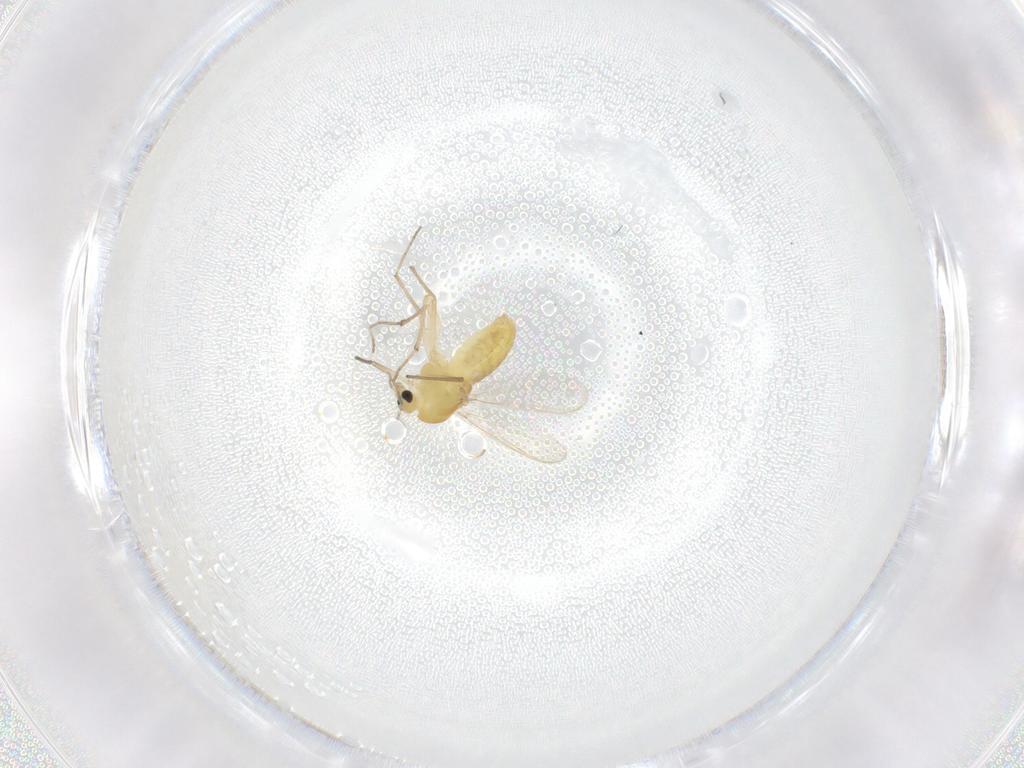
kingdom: Animalia
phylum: Arthropoda
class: Insecta
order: Diptera
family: Chironomidae
